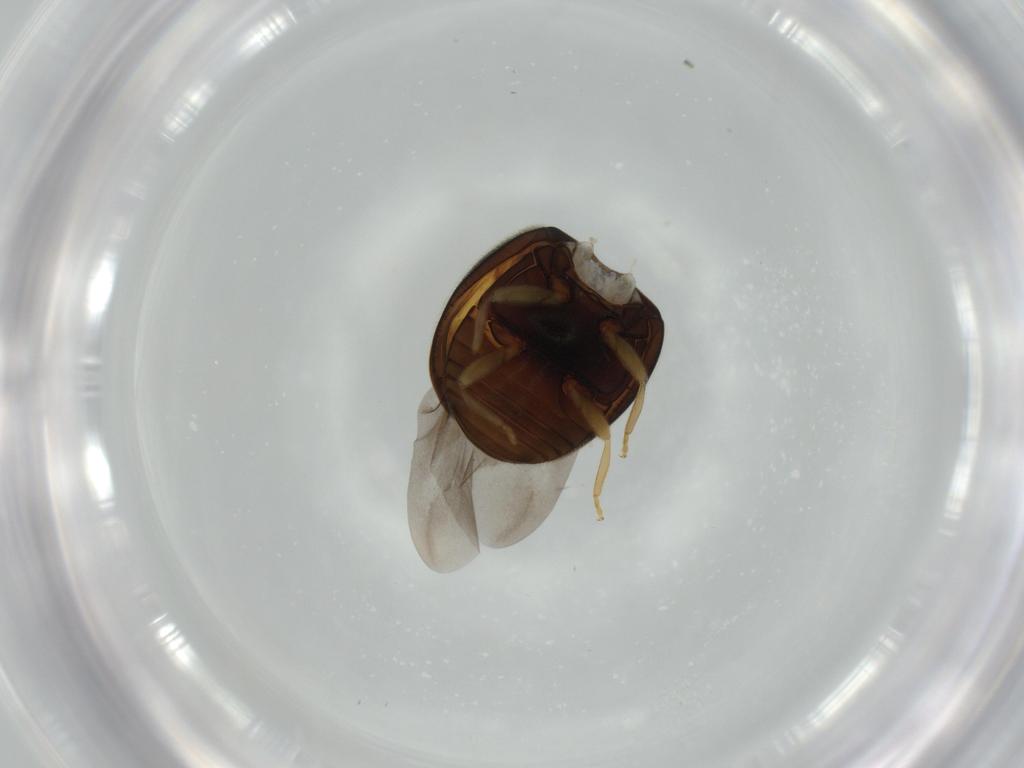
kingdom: Animalia
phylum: Arthropoda
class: Insecta
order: Coleoptera
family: Coccinellidae
